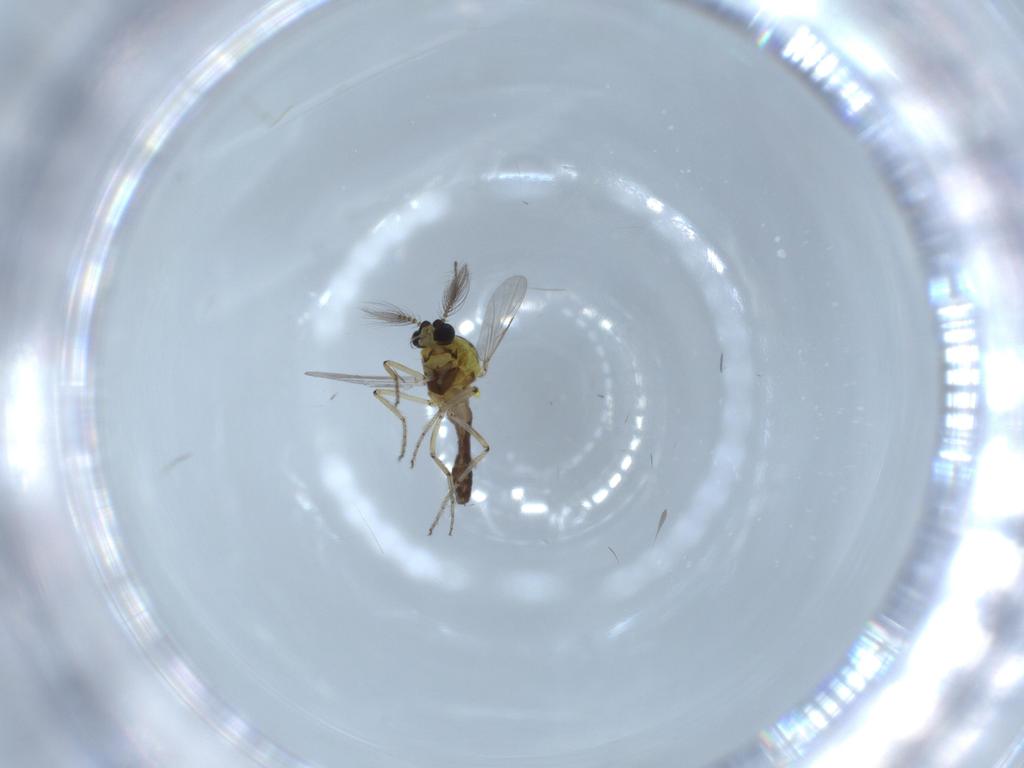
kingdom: Animalia
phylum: Arthropoda
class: Insecta
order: Diptera
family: Ceratopogonidae
